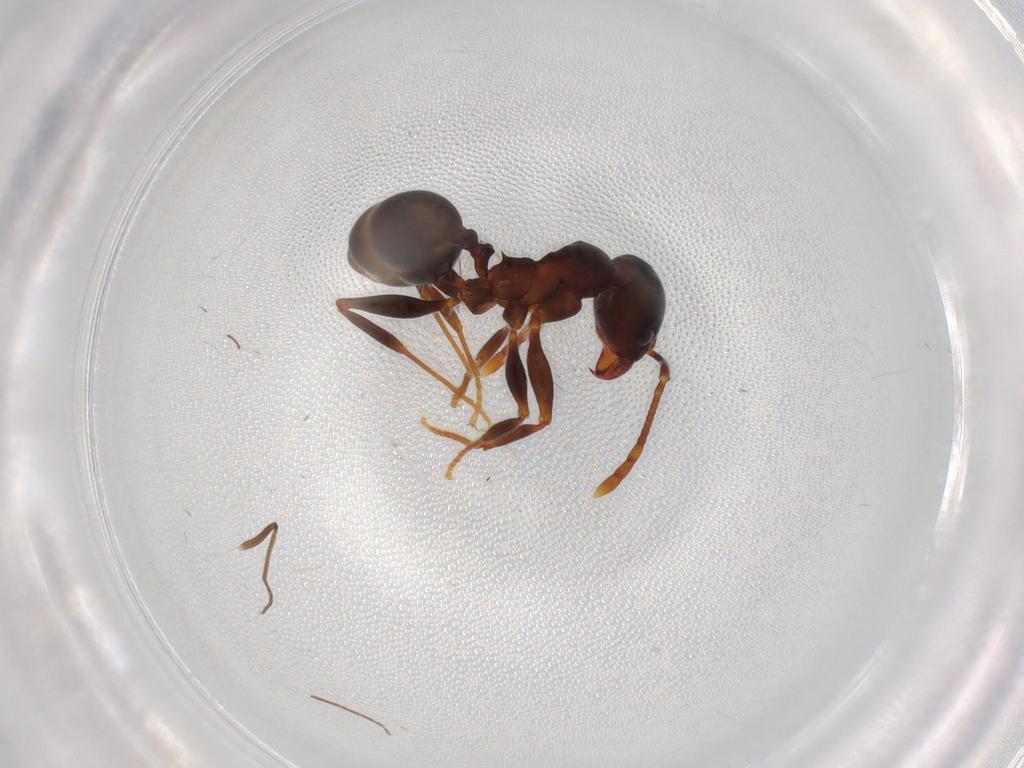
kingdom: Animalia
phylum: Arthropoda
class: Insecta
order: Hymenoptera
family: Formicidae
